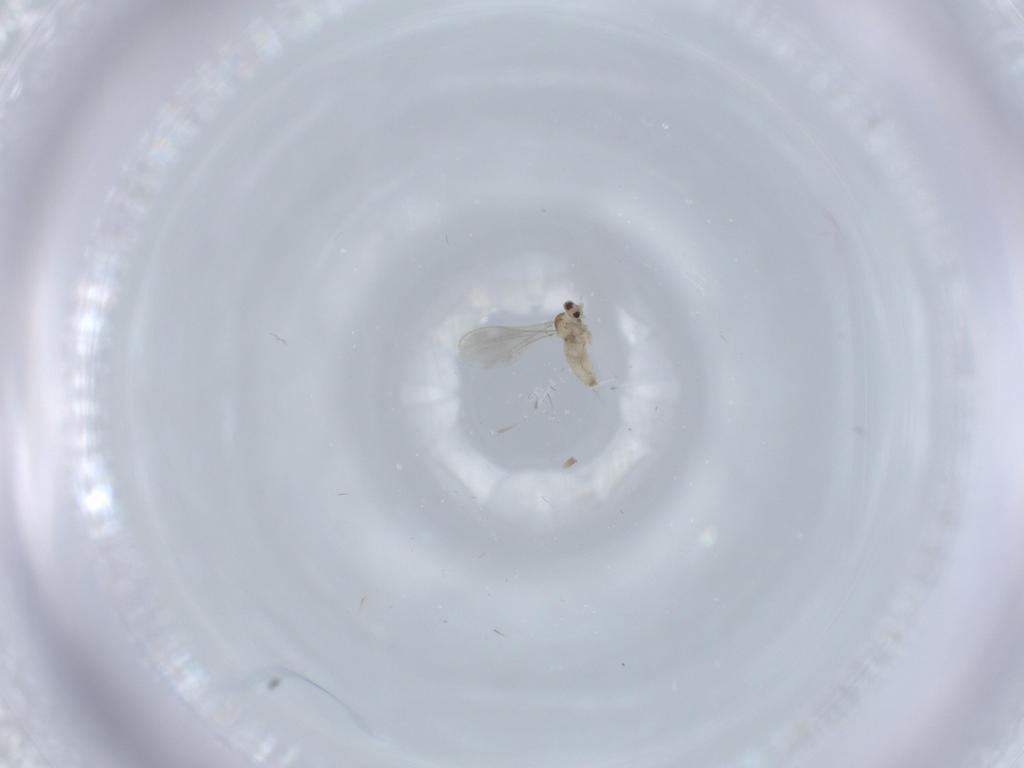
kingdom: Animalia
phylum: Arthropoda
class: Insecta
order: Diptera
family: Cecidomyiidae
